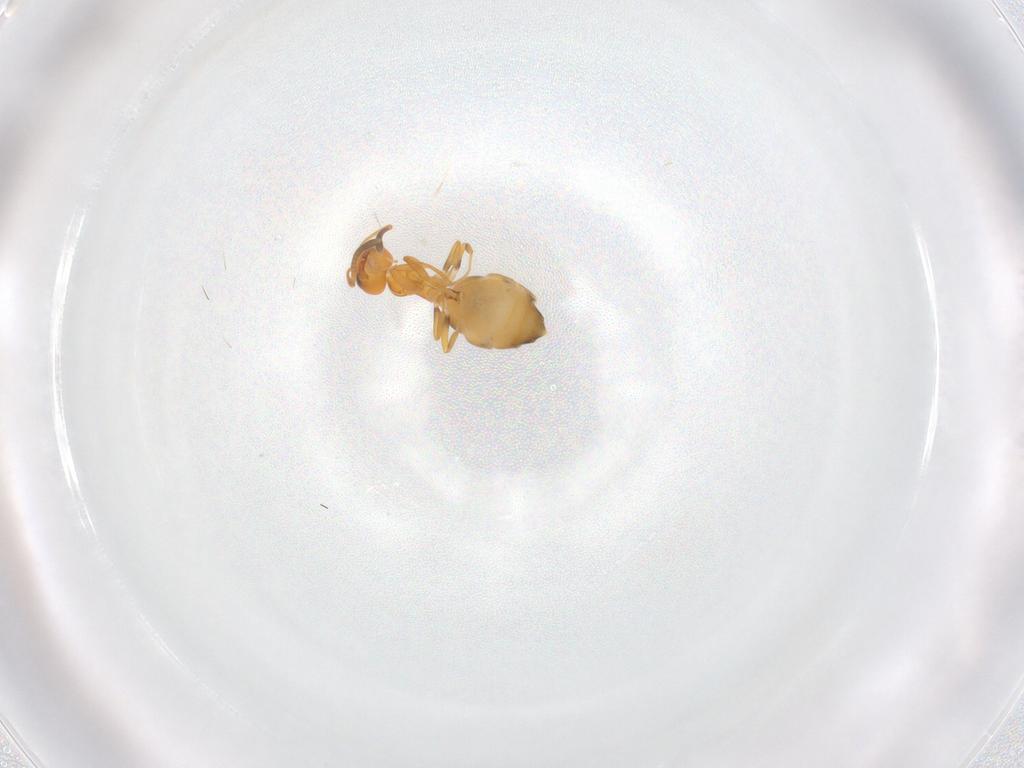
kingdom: Animalia
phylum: Arthropoda
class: Insecta
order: Hymenoptera
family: Formicidae
